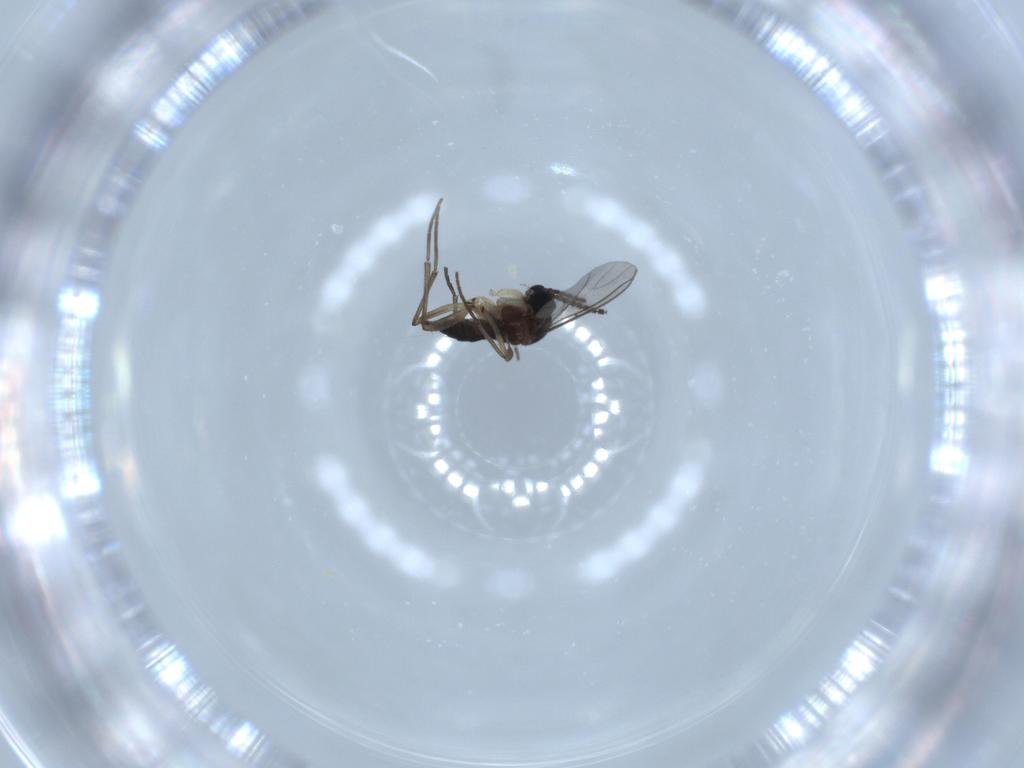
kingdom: Animalia
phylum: Arthropoda
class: Insecta
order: Diptera
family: Sciaridae
